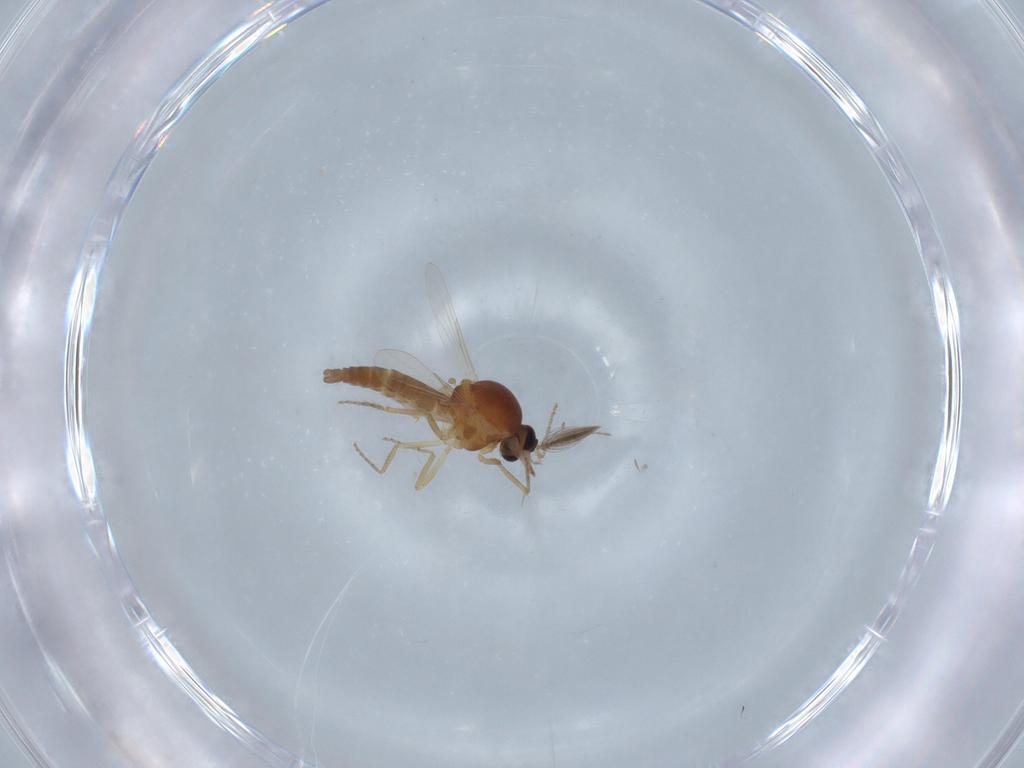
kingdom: Animalia
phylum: Arthropoda
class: Insecta
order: Diptera
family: Ceratopogonidae
